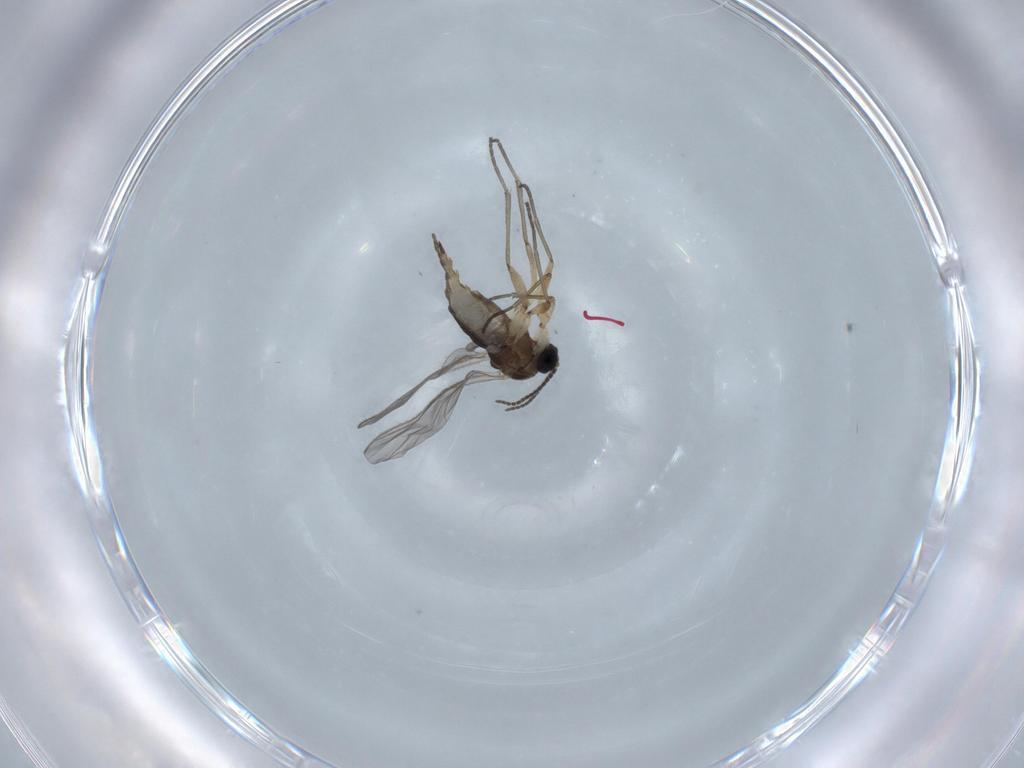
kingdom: Animalia
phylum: Arthropoda
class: Insecta
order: Diptera
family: Sciaridae
